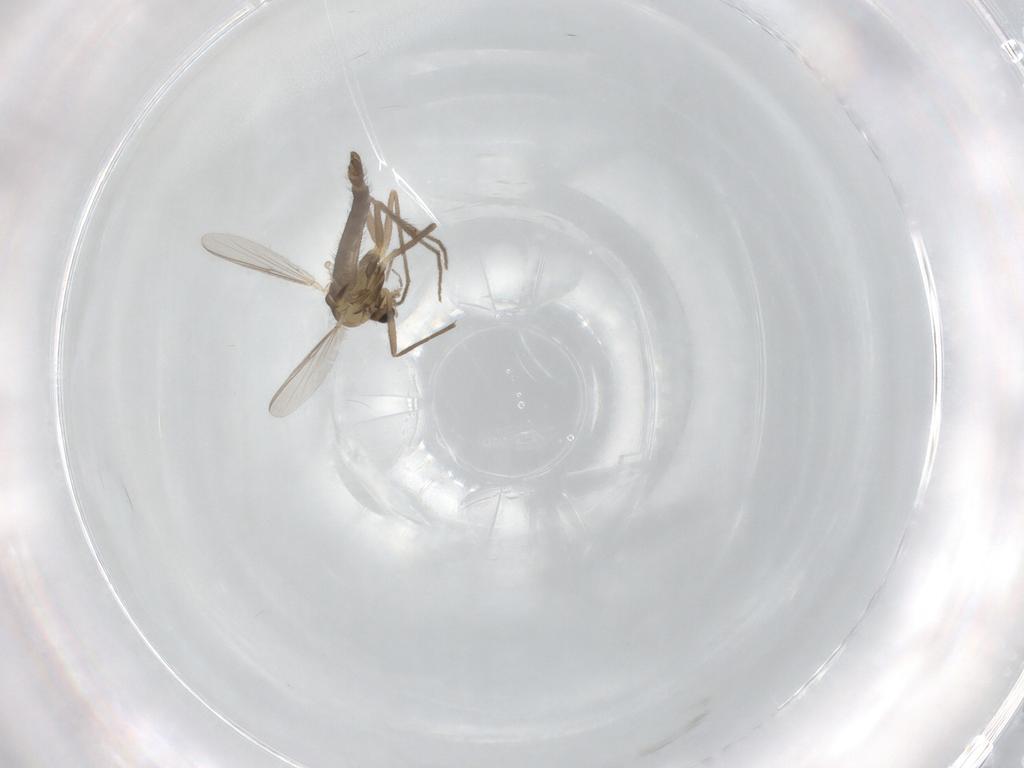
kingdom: Animalia
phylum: Arthropoda
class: Insecta
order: Diptera
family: Chironomidae
